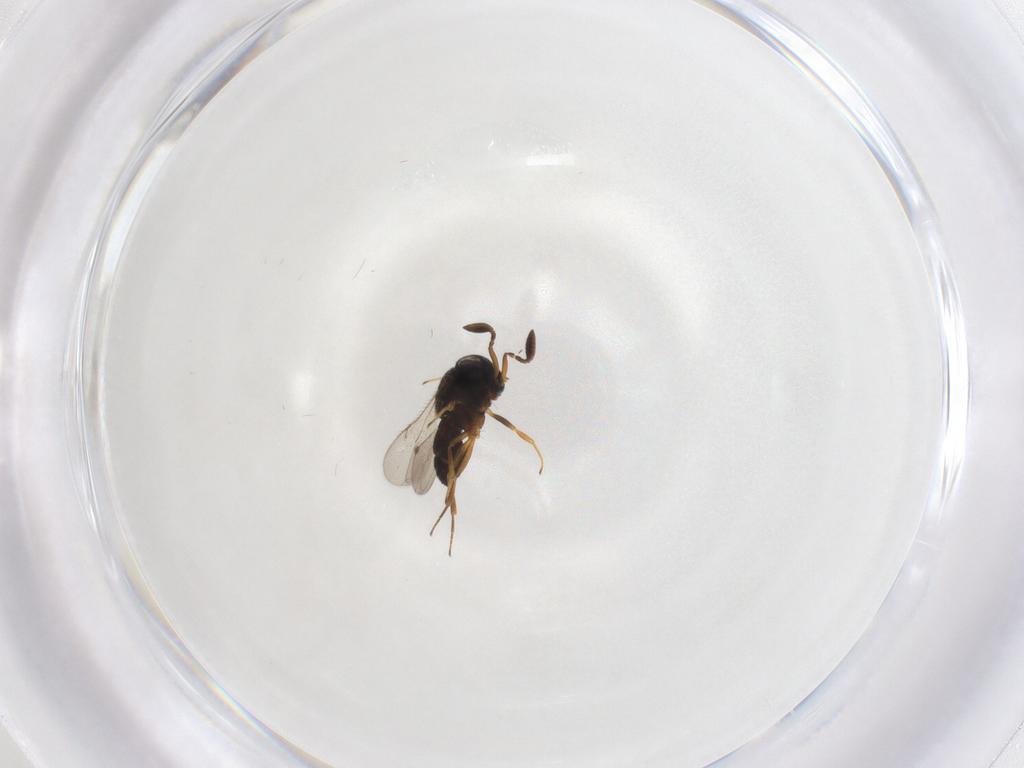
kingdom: Animalia
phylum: Arthropoda
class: Insecta
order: Hymenoptera
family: Scelionidae
